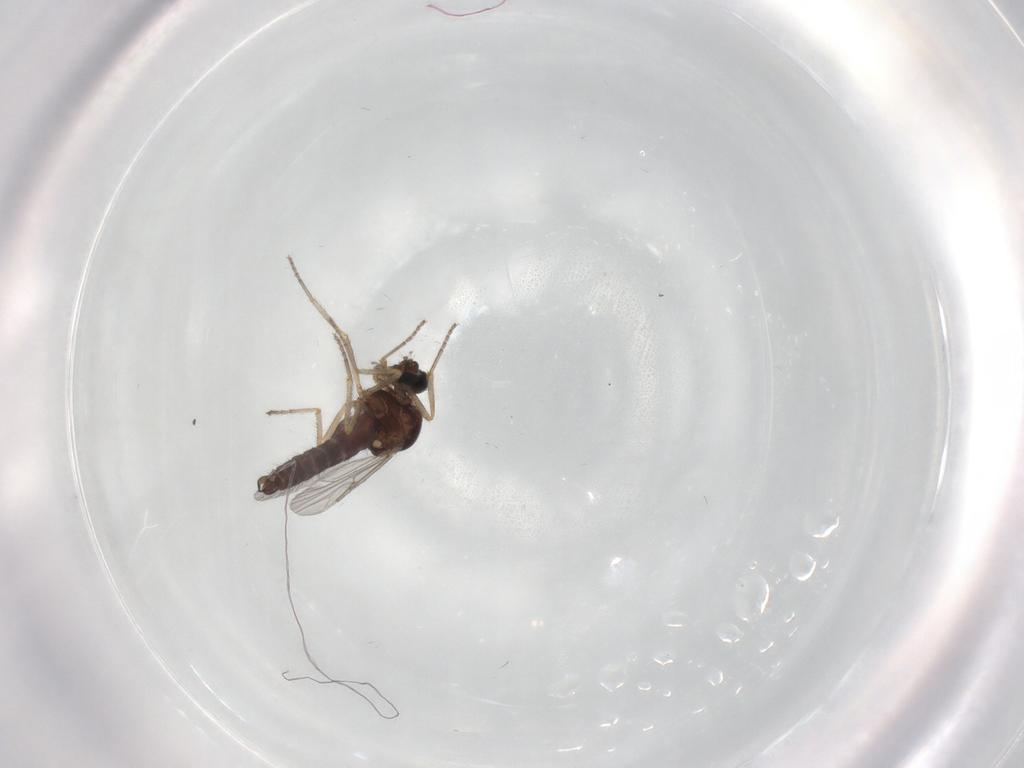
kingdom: Animalia
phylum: Arthropoda
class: Insecta
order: Diptera
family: Ceratopogonidae
